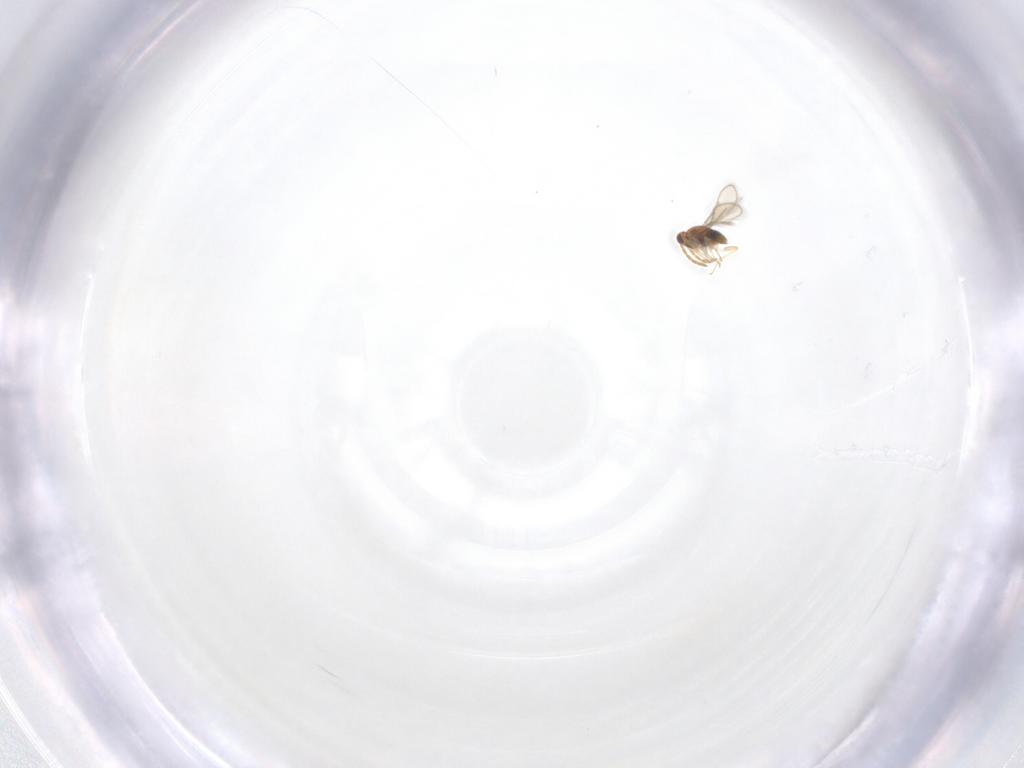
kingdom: Animalia
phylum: Arthropoda
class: Insecta
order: Hymenoptera
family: Aphelinidae
